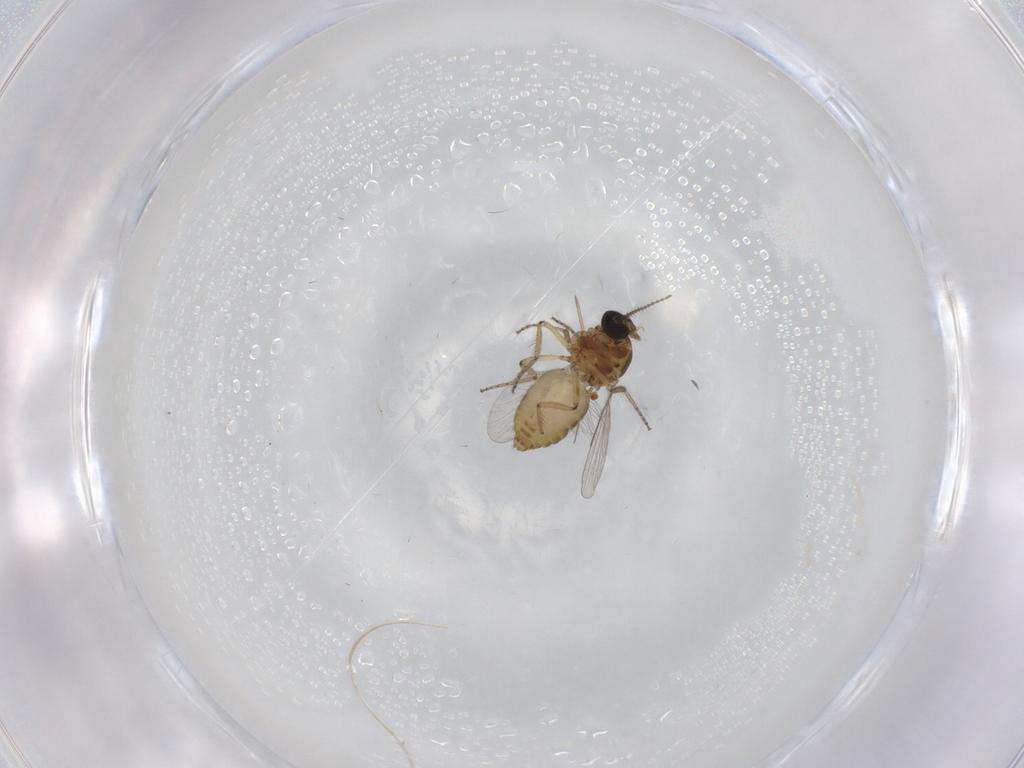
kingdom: Animalia
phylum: Arthropoda
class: Insecta
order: Diptera
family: Ceratopogonidae
